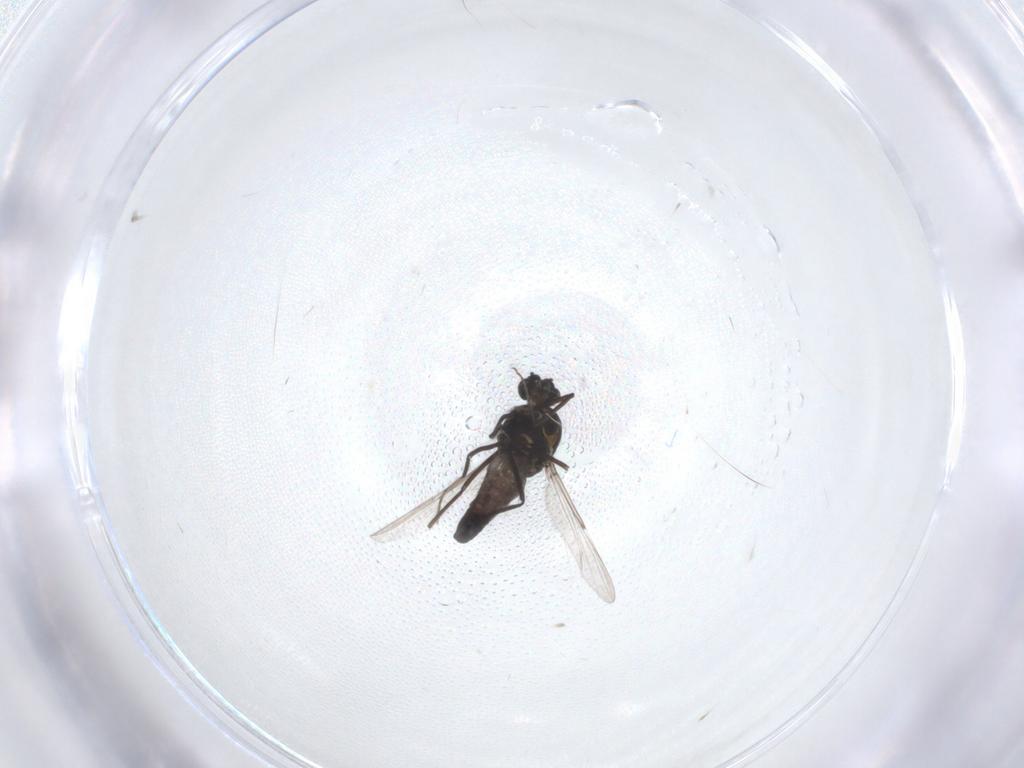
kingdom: Animalia
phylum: Arthropoda
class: Insecta
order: Diptera
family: Ceratopogonidae
